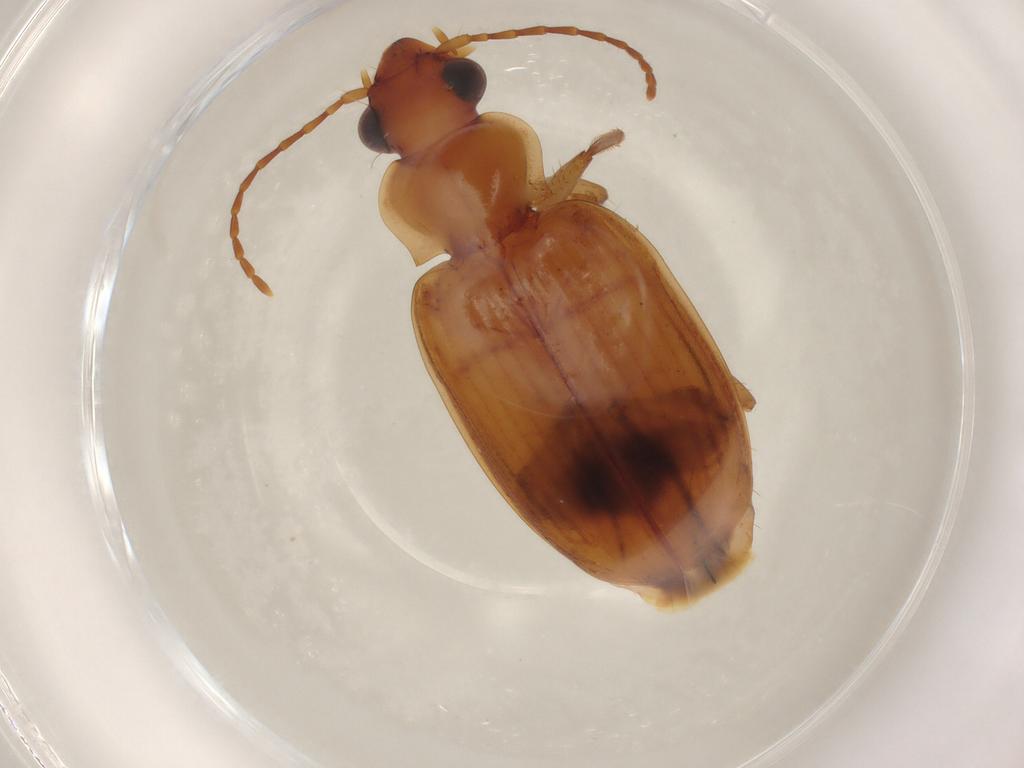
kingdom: Animalia
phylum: Arthropoda
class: Insecta
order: Coleoptera
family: Carabidae
